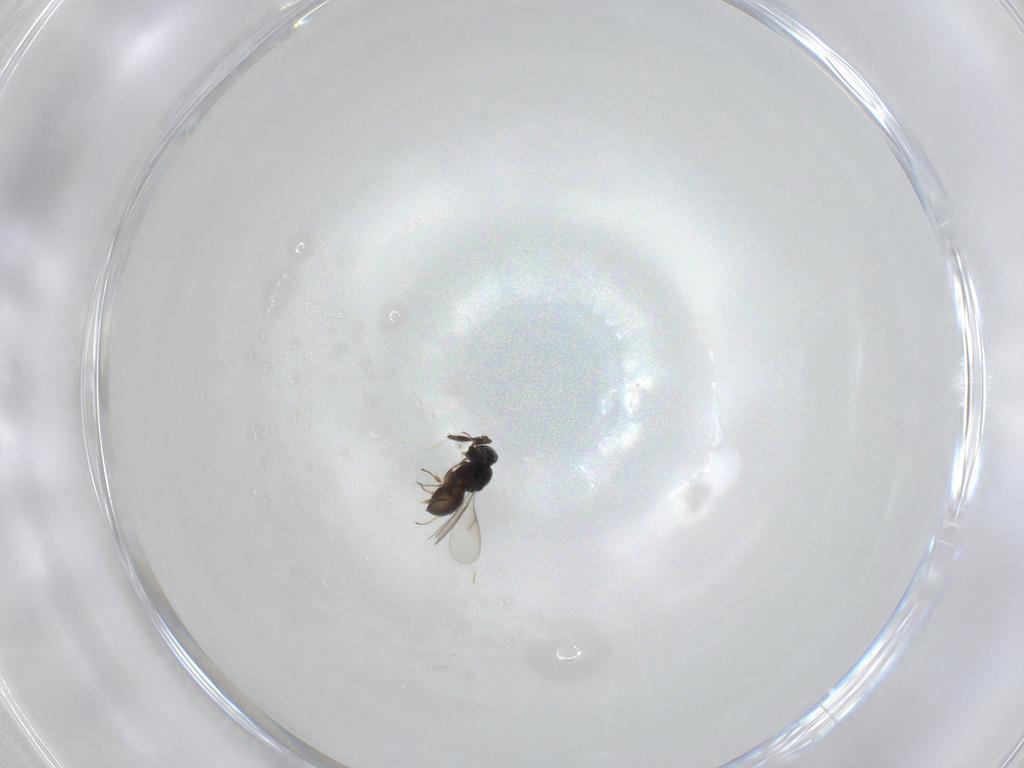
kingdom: Animalia
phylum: Arthropoda
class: Insecta
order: Hymenoptera
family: Scelionidae
